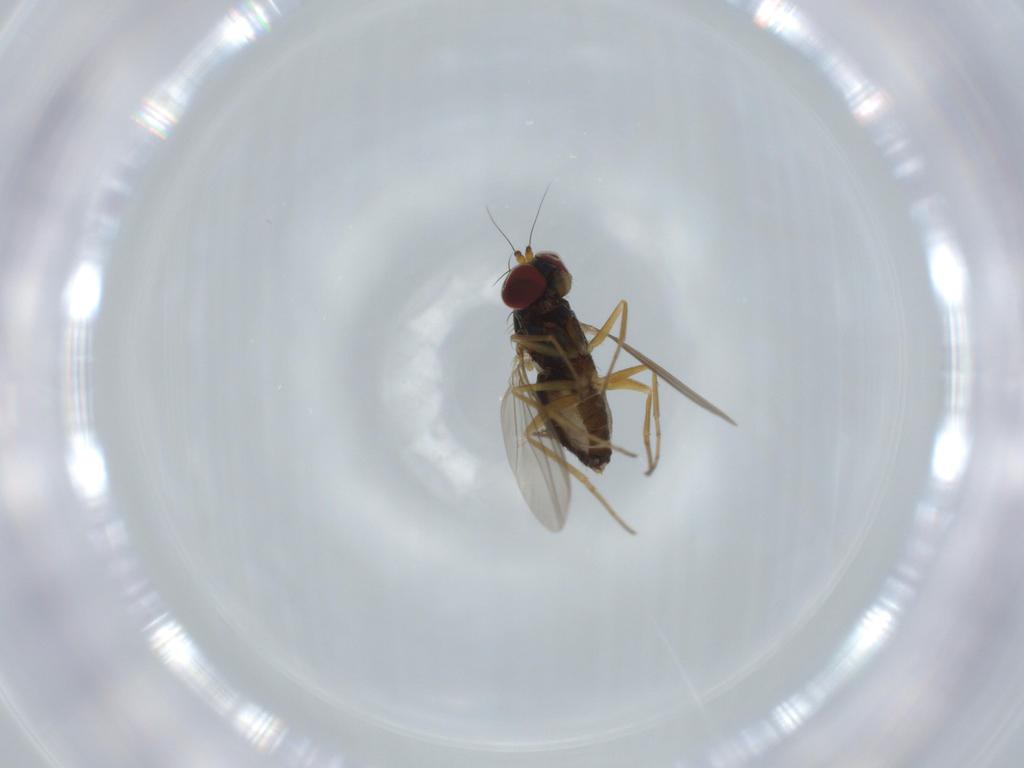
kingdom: Animalia
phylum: Arthropoda
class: Insecta
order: Diptera
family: Dolichopodidae
